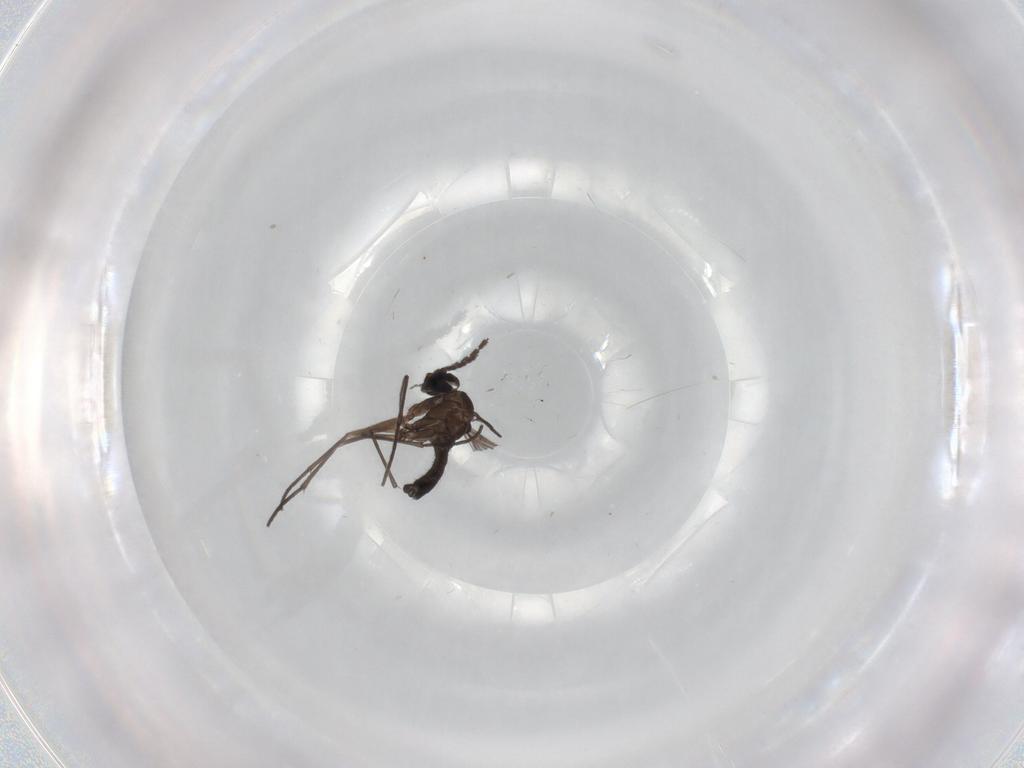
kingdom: Animalia
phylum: Arthropoda
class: Insecta
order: Diptera
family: Sciaridae
